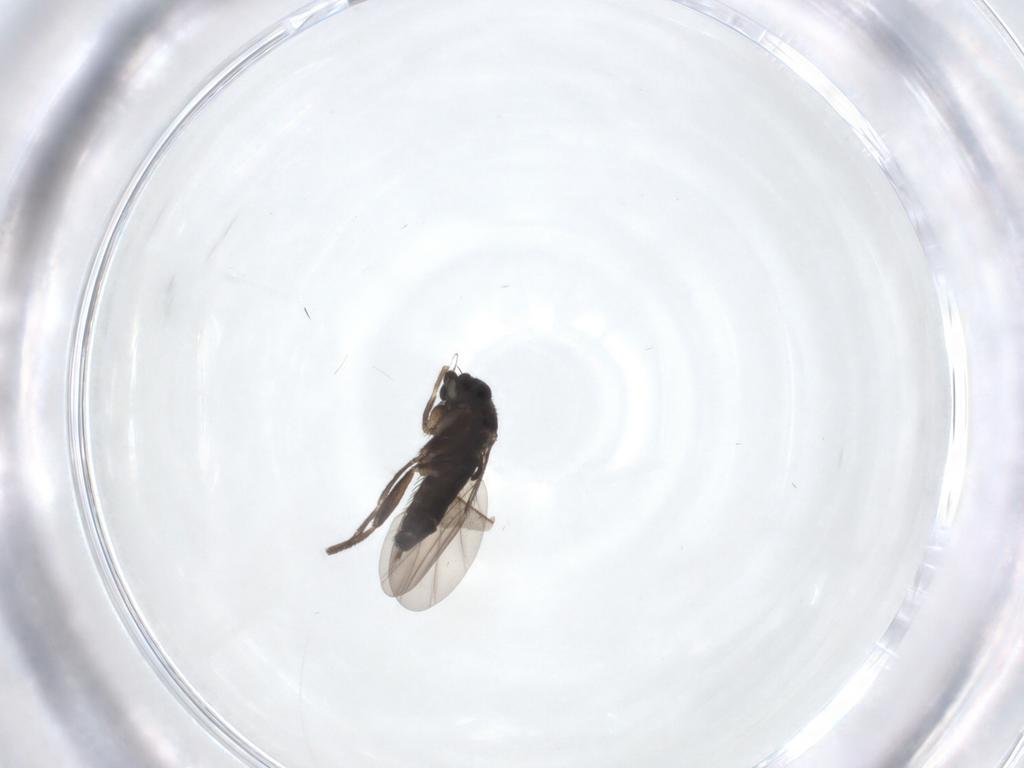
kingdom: Animalia
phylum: Arthropoda
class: Insecta
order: Diptera
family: Phoridae
